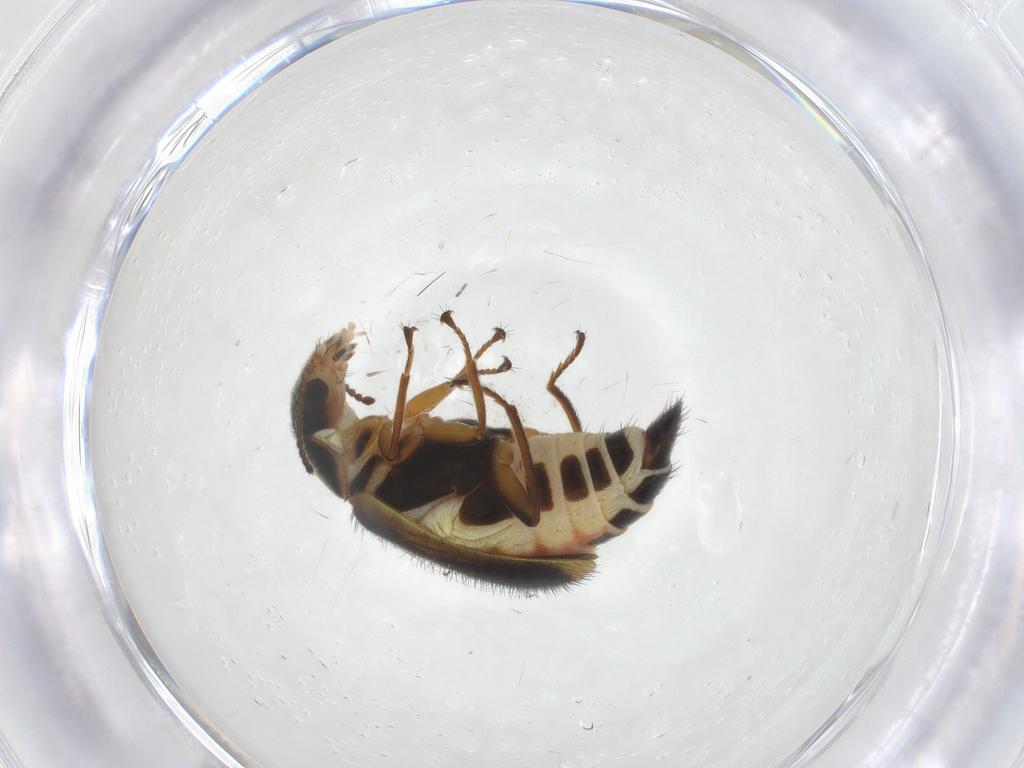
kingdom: Animalia
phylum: Arthropoda
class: Insecta
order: Coleoptera
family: Melyridae
